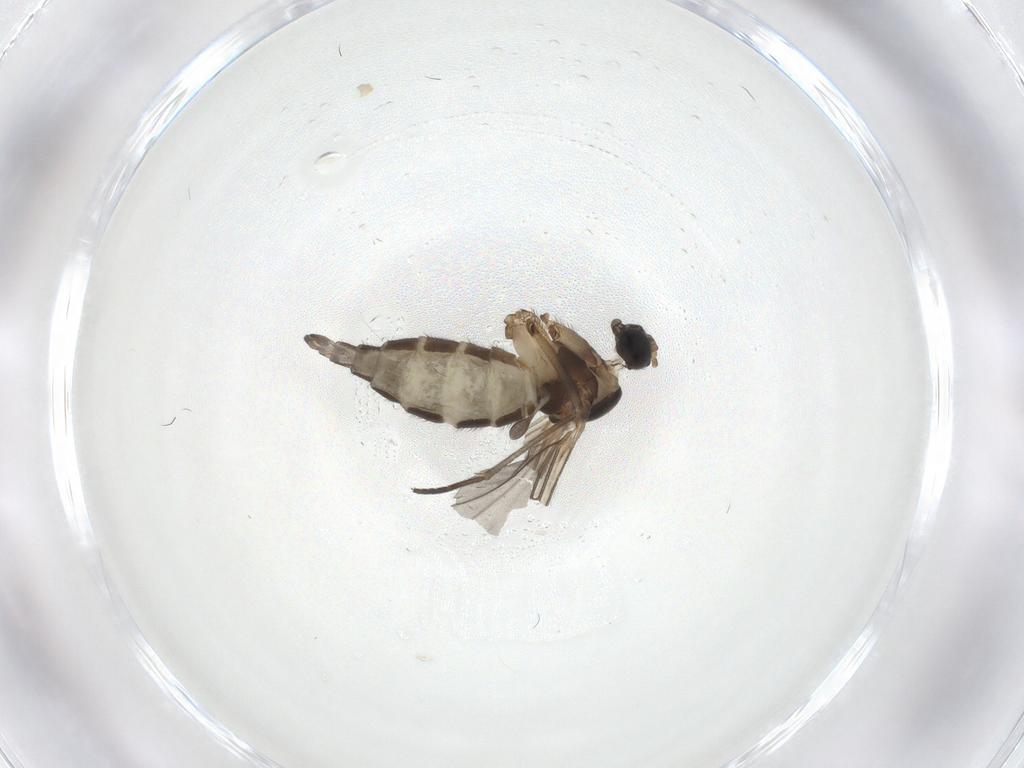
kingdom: Animalia
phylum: Arthropoda
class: Insecta
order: Diptera
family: Sciaridae
